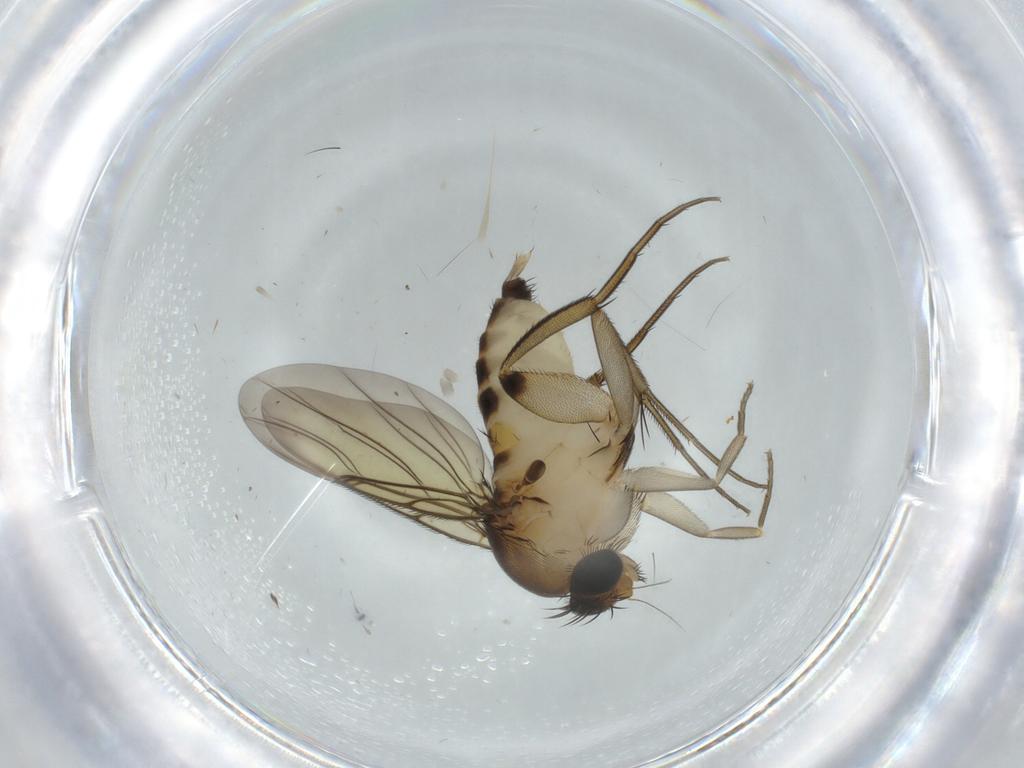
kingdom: Animalia
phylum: Arthropoda
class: Insecta
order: Diptera
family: Phoridae
